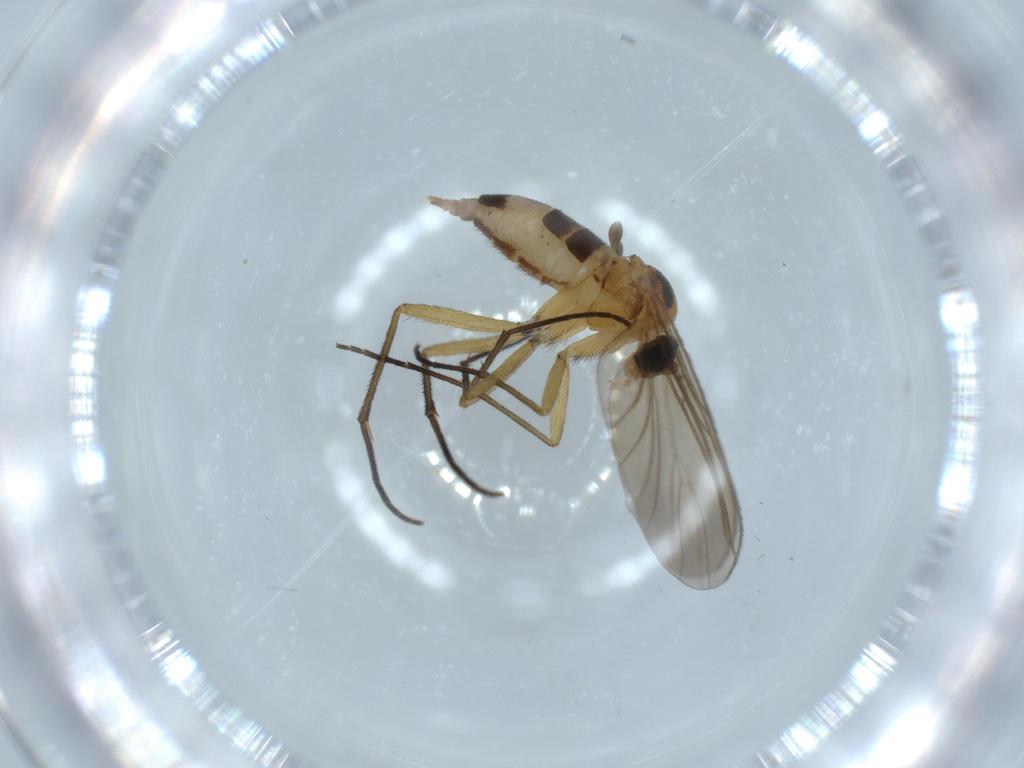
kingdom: Animalia
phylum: Arthropoda
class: Insecta
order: Diptera
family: Sciaridae
